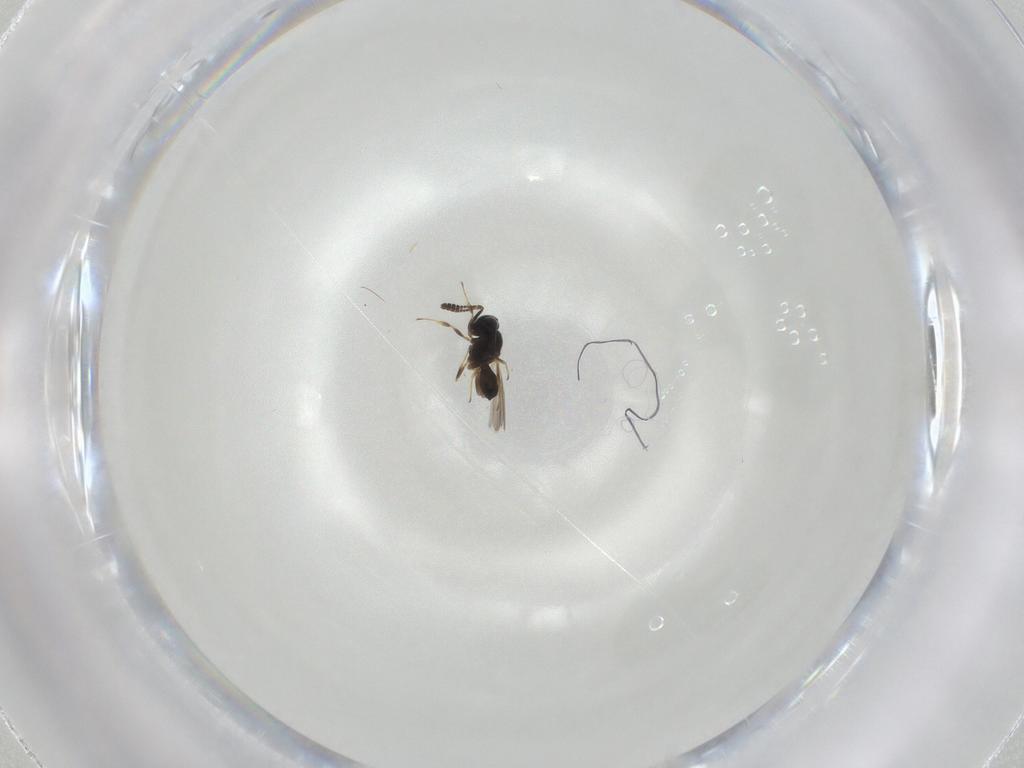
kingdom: Animalia
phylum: Arthropoda
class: Insecta
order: Hymenoptera
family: Scelionidae
